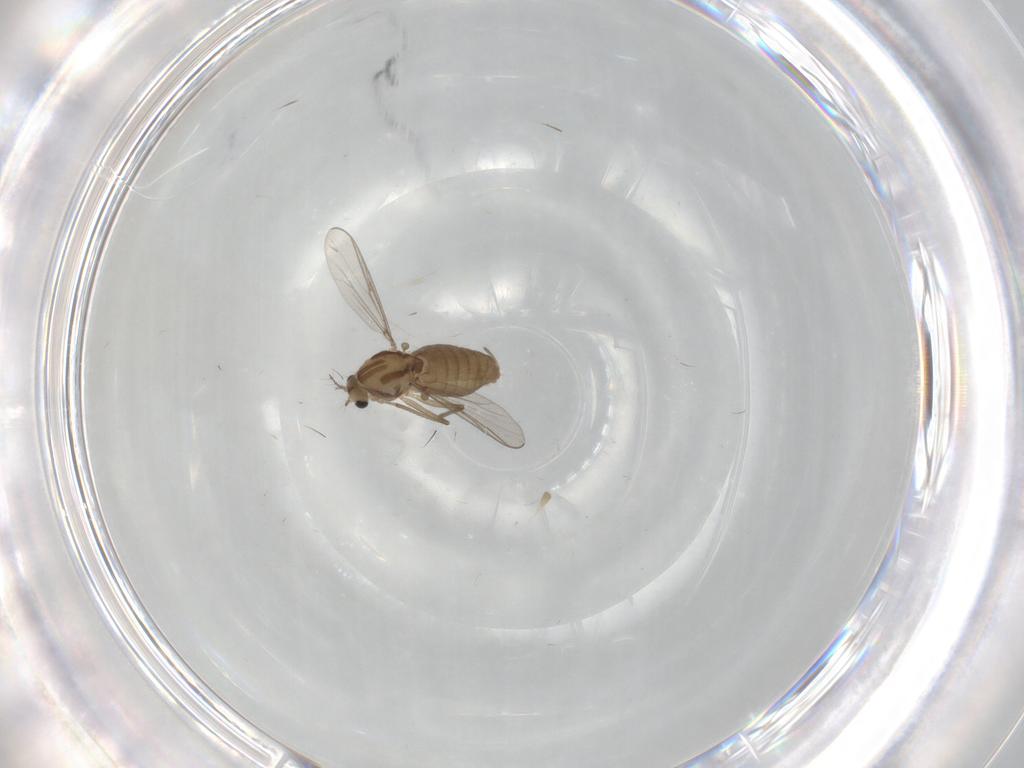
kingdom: Animalia
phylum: Arthropoda
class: Insecta
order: Diptera
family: Chironomidae
